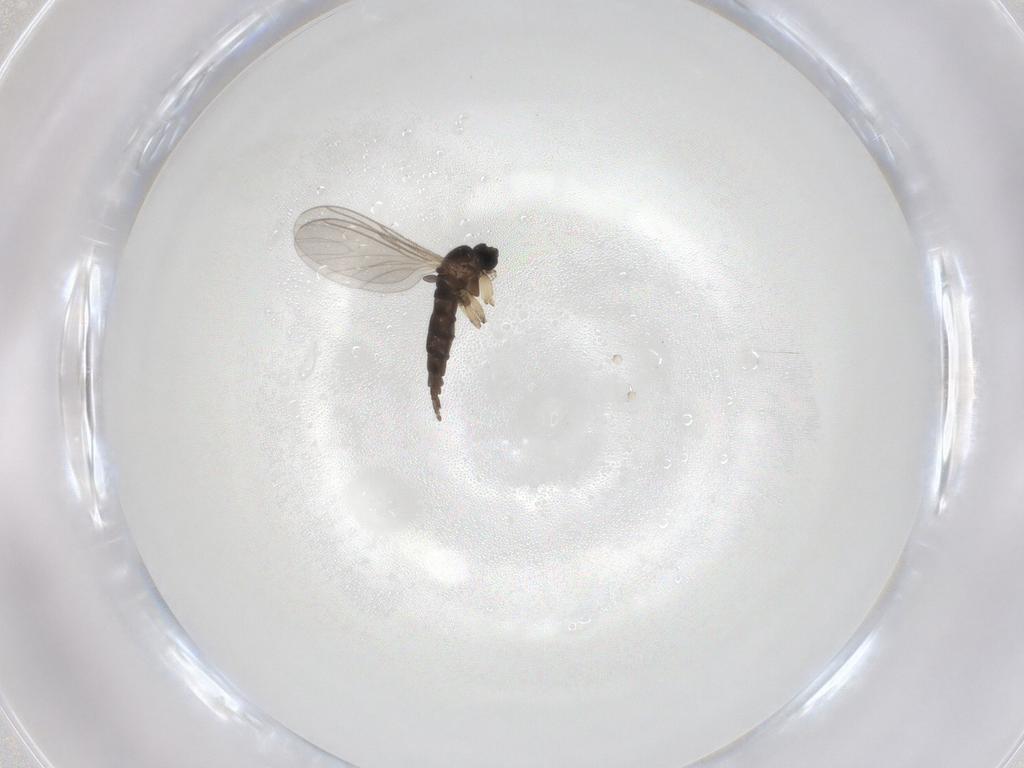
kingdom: Animalia
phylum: Arthropoda
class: Insecta
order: Diptera
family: Sciaridae
